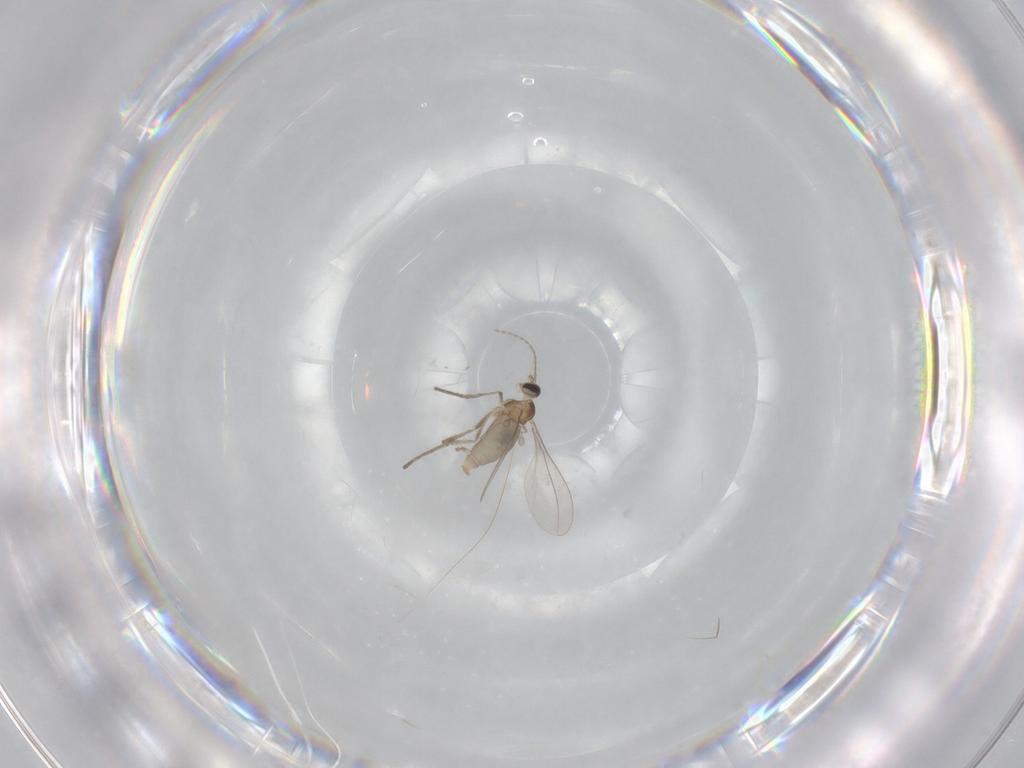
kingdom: Animalia
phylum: Arthropoda
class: Insecta
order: Diptera
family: Cecidomyiidae
